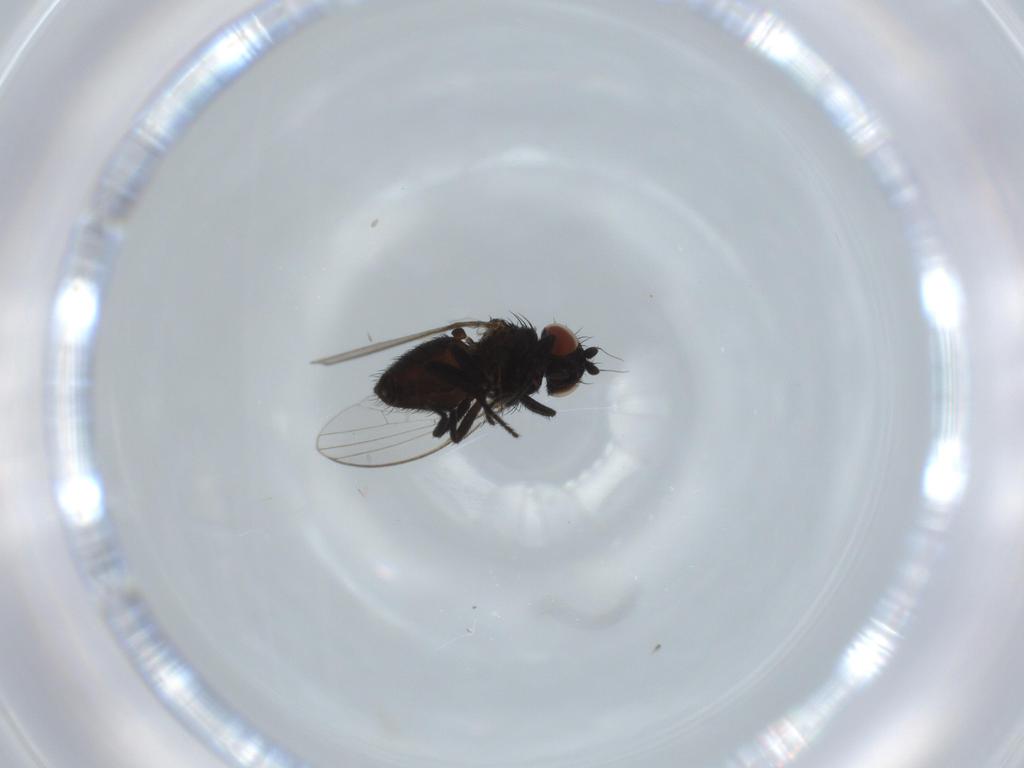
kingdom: Animalia
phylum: Arthropoda
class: Insecta
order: Diptera
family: Milichiidae
